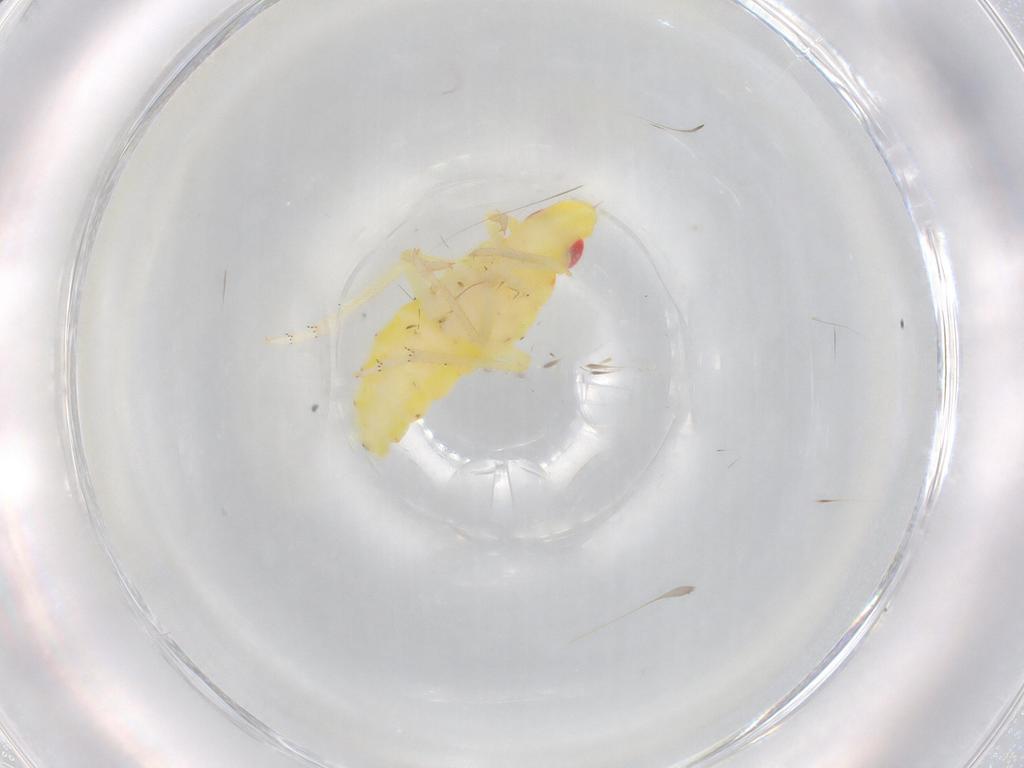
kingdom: Animalia
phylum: Arthropoda
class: Insecta
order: Hemiptera
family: Tropiduchidae
